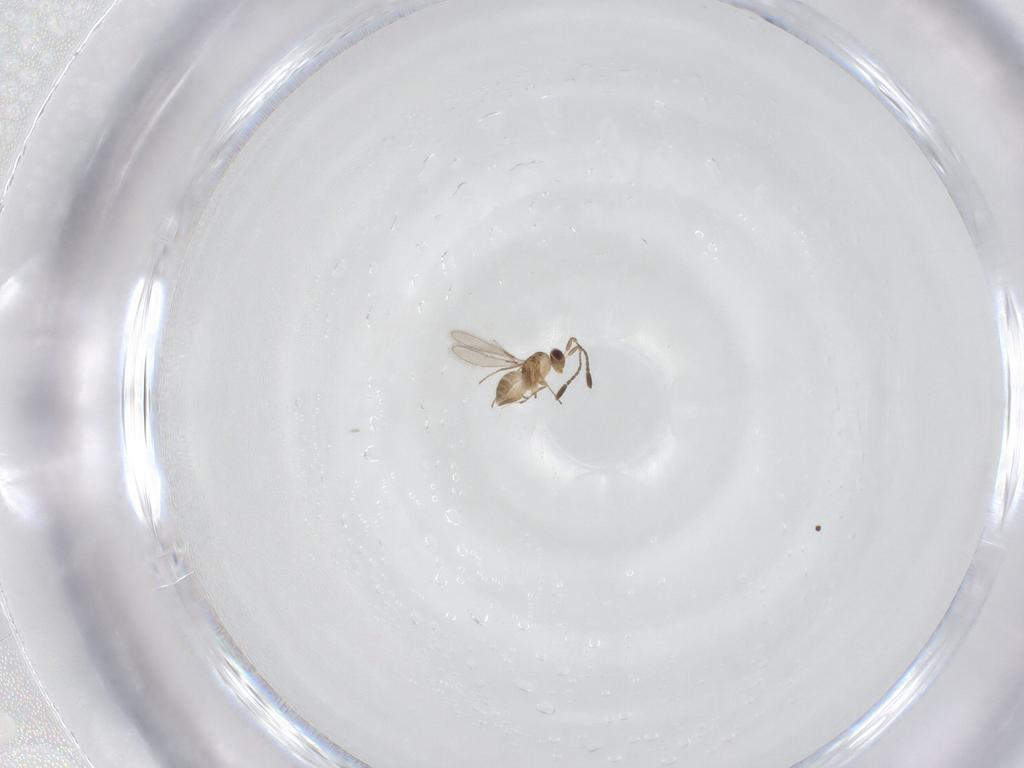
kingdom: Animalia
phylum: Arthropoda
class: Insecta
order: Hymenoptera
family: Mymaridae
